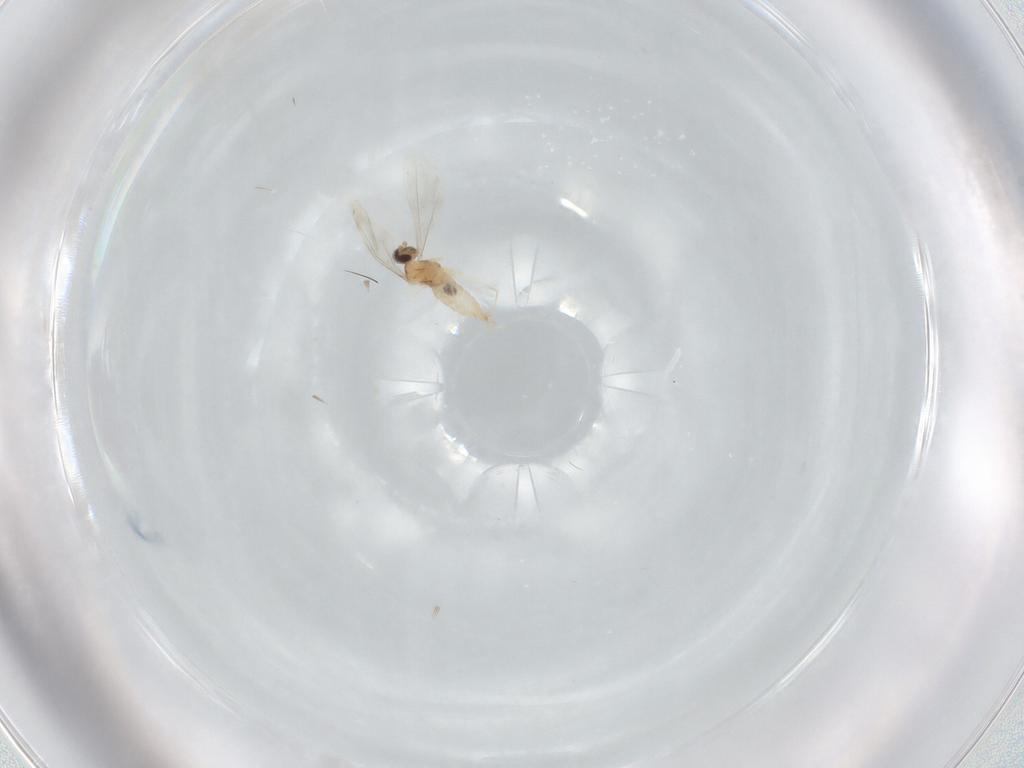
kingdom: Animalia
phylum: Arthropoda
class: Insecta
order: Diptera
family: Cecidomyiidae
